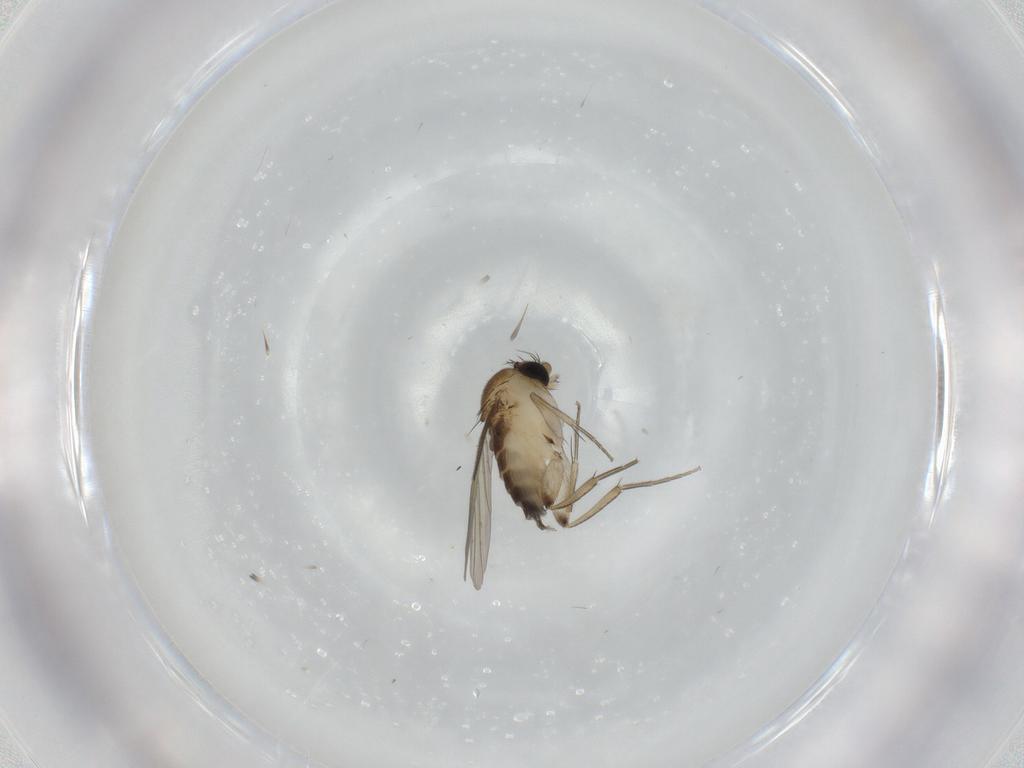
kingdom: Animalia
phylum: Arthropoda
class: Insecta
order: Diptera
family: Phoridae
